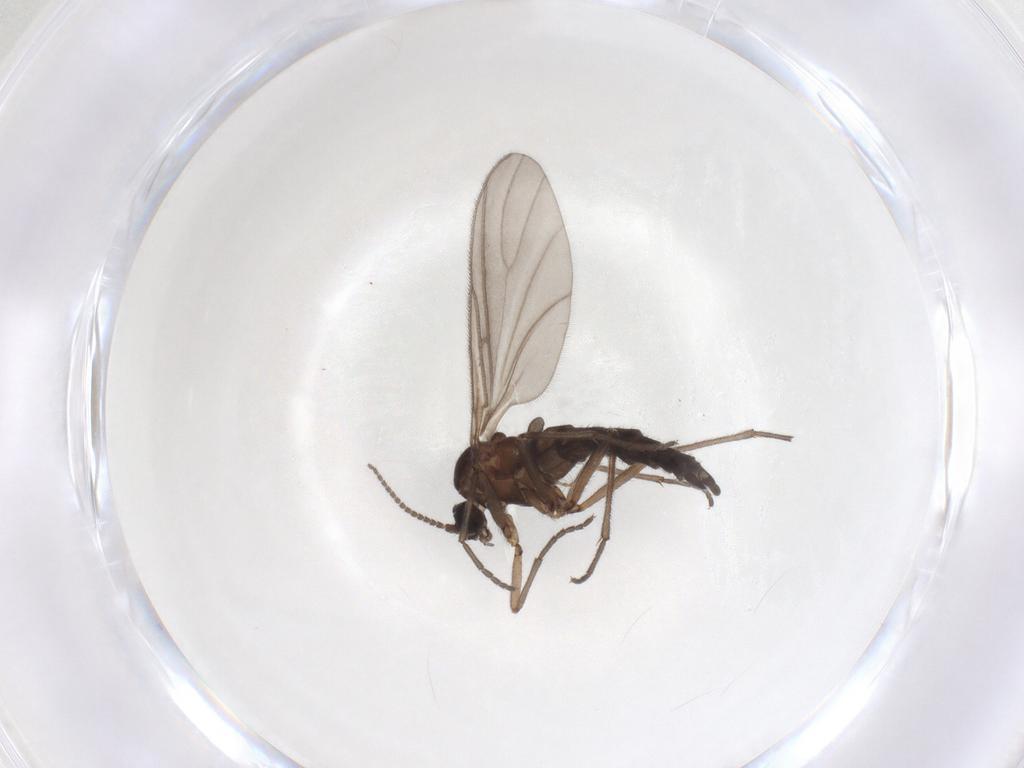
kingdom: Animalia
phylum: Arthropoda
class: Insecta
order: Diptera
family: Sciaridae
